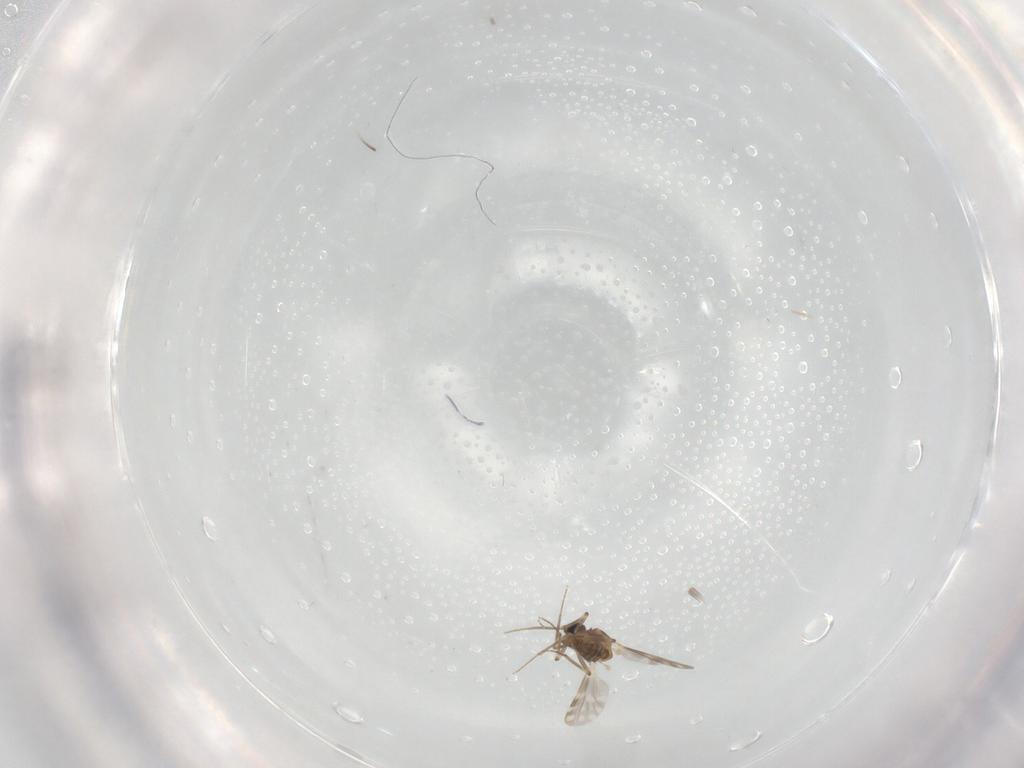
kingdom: Animalia
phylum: Arthropoda
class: Insecta
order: Diptera
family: Ceratopogonidae
